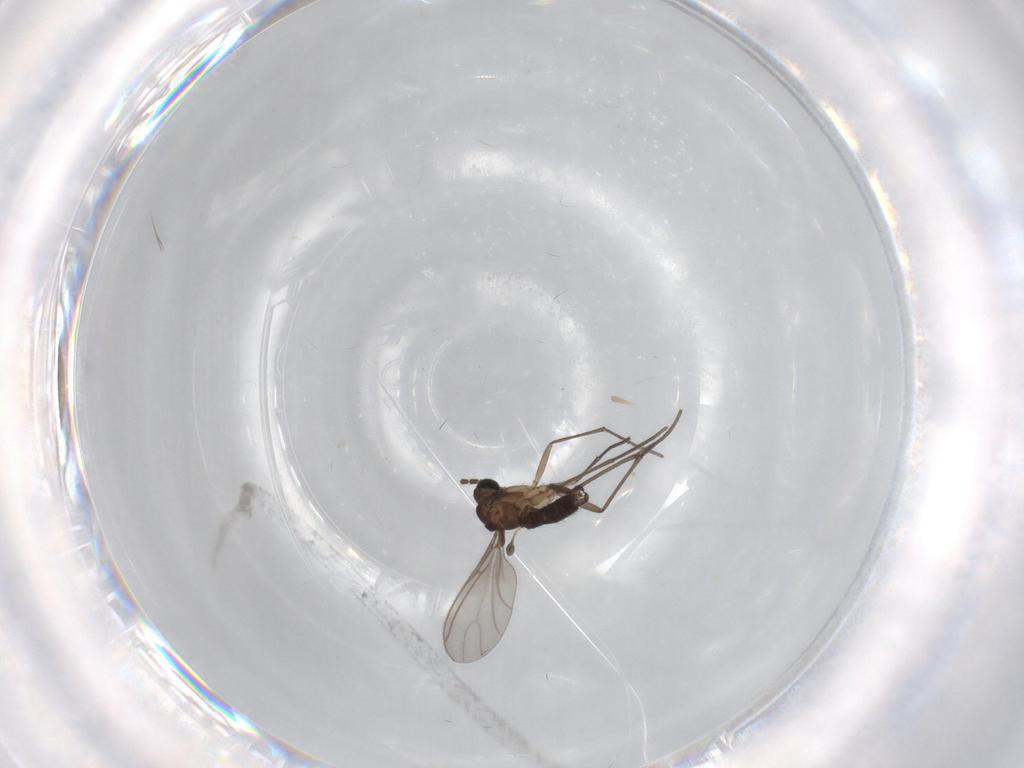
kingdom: Animalia
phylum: Arthropoda
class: Insecta
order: Diptera
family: Sciaridae
